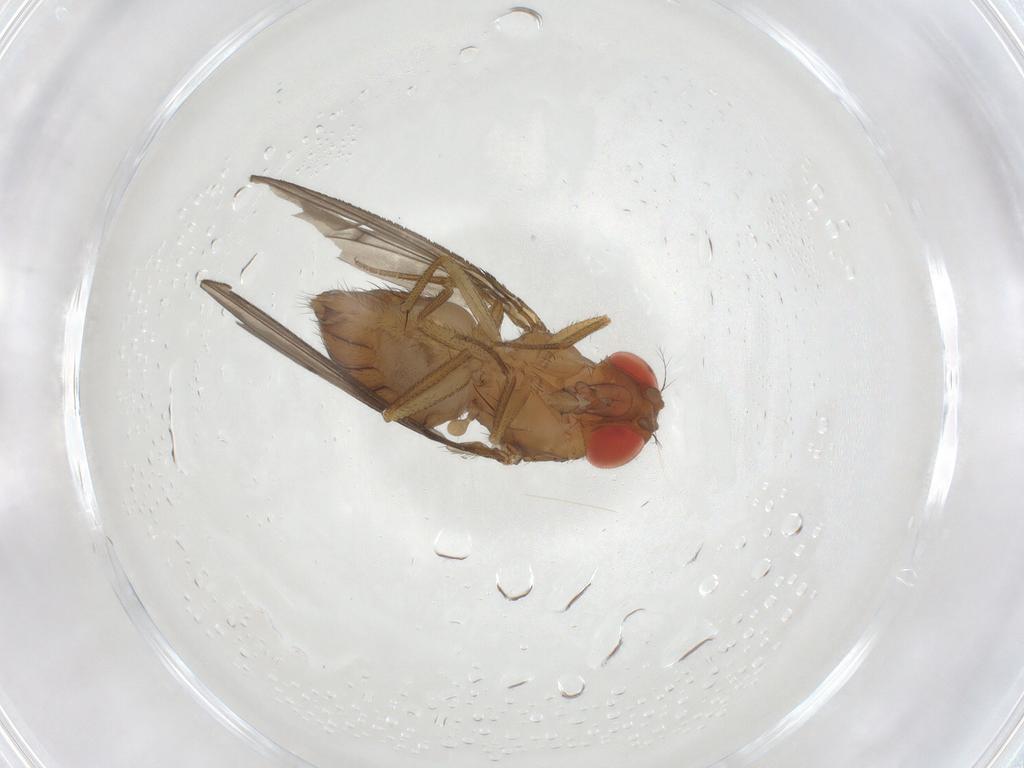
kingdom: Animalia
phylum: Arthropoda
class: Insecta
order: Diptera
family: Drosophilidae
